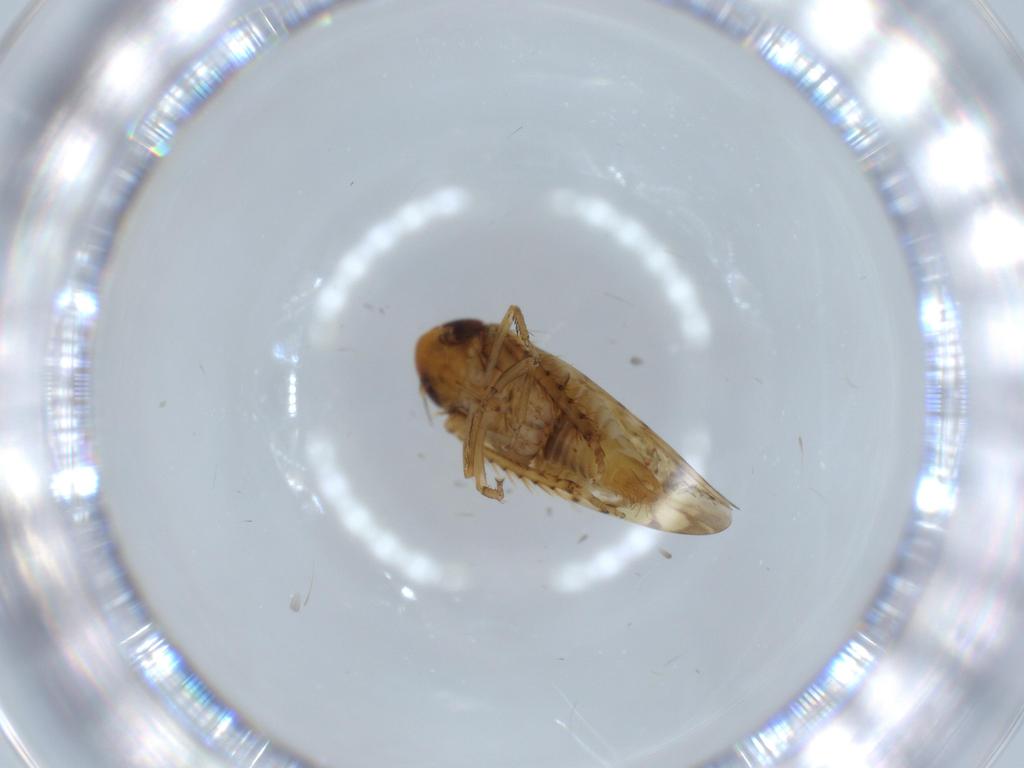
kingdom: Animalia
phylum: Arthropoda
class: Insecta
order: Hemiptera
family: Cicadellidae
